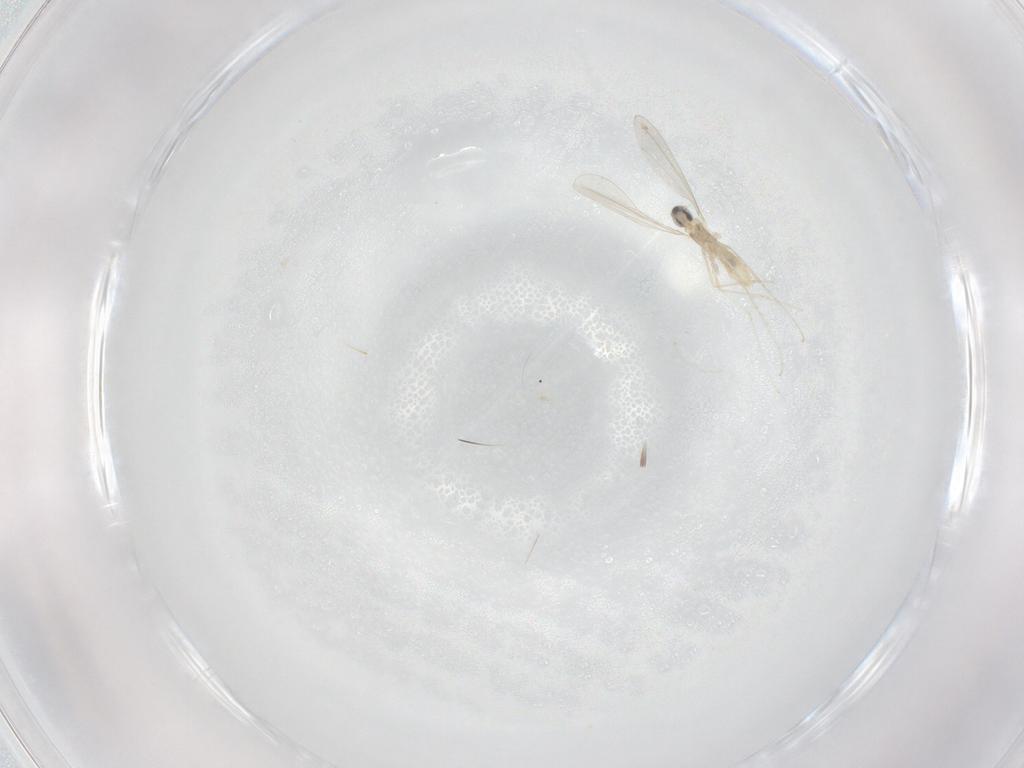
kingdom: Animalia
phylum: Arthropoda
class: Insecta
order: Diptera
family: Cecidomyiidae
